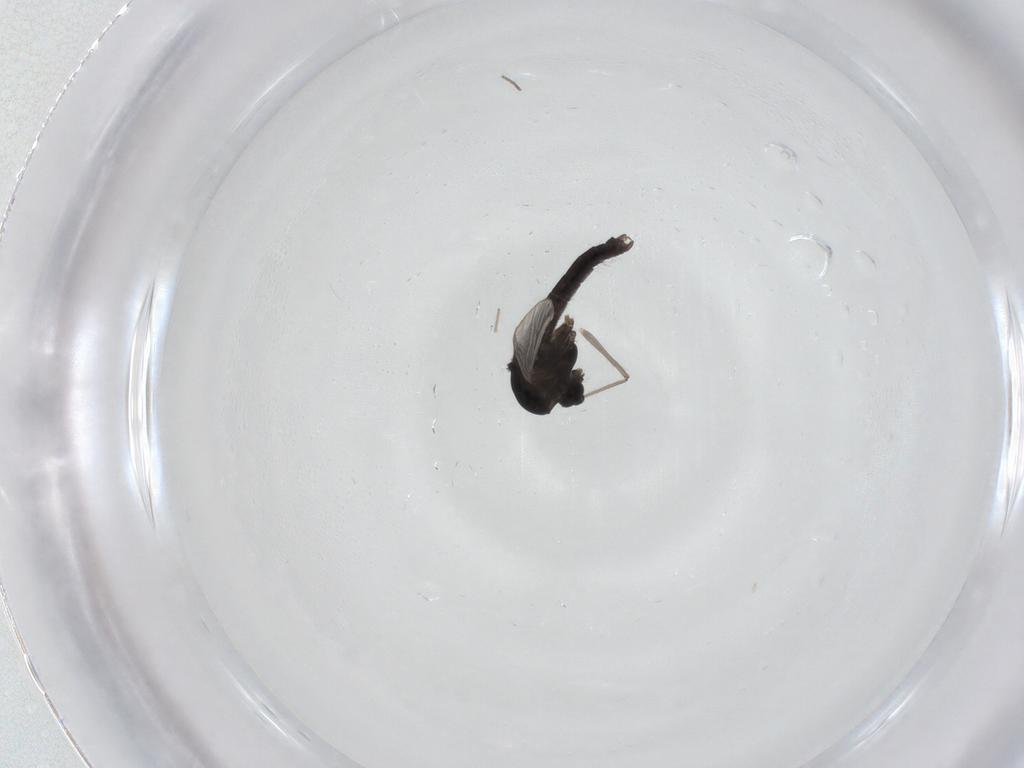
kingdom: Animalia
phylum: Arthropoda
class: Insecta
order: Diptera
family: Chironomidae
